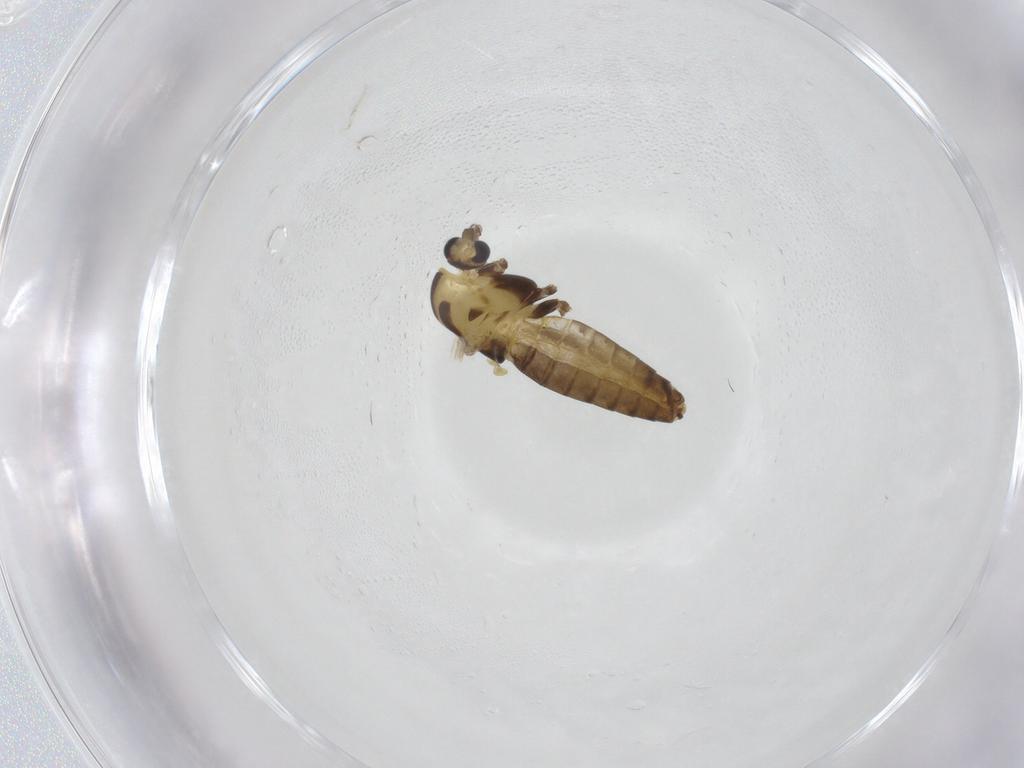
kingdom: Animalia
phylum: Arthropoda
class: Insecta
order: Diptera
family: Chironomidae
